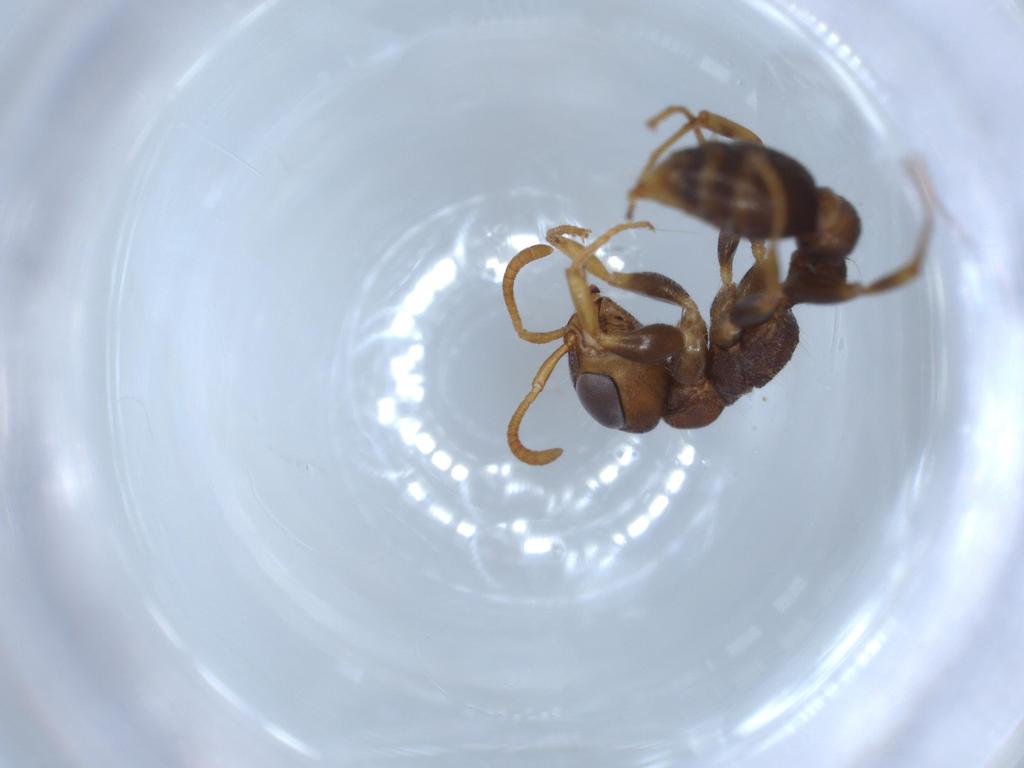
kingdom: Animalia
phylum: Arthropoda
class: Insecta
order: Hymenoptera
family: Formicidae
